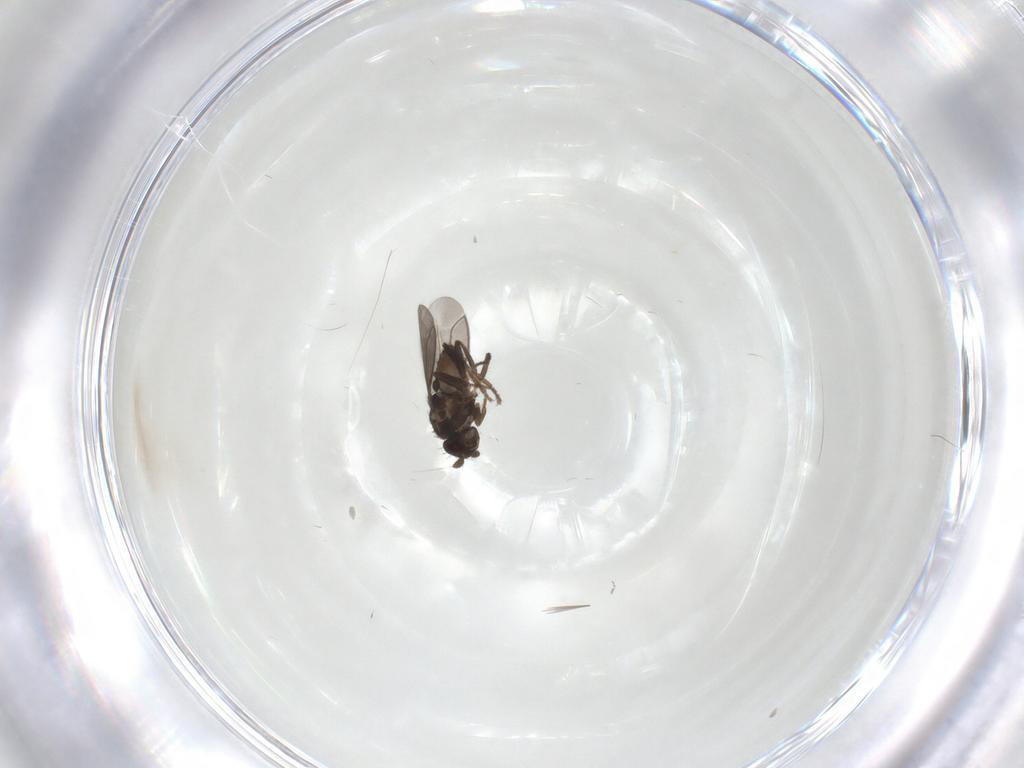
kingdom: Animalia
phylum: Arthropoda
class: Insecta
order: Diptera
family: Sphaeroceridae
